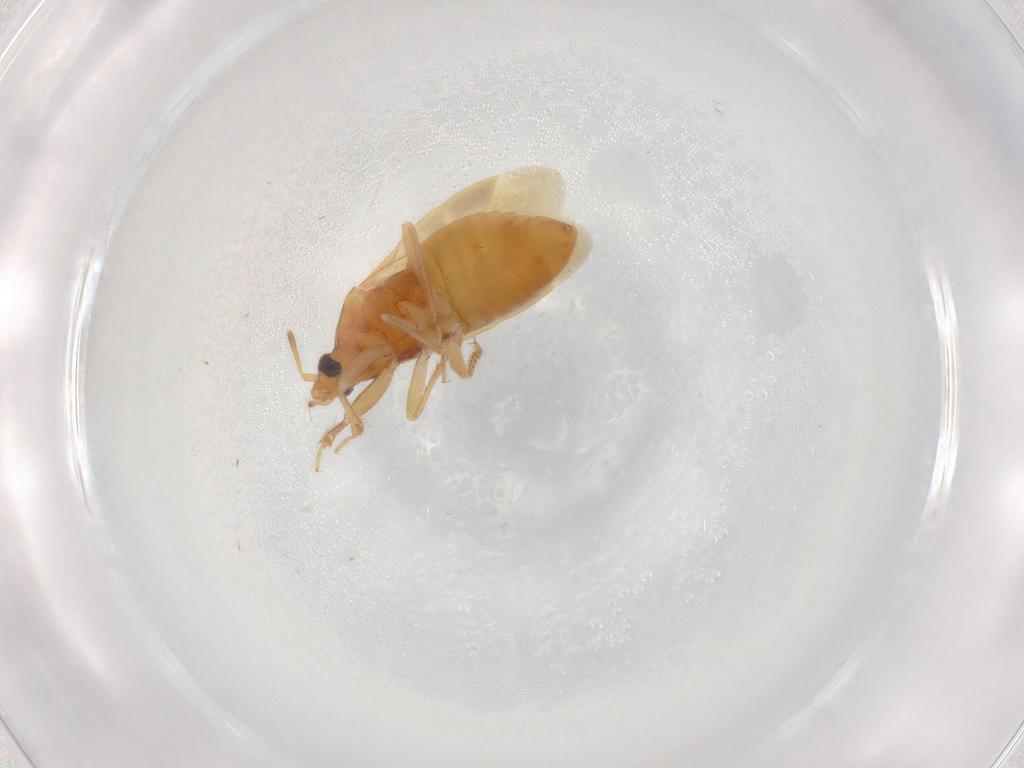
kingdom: Animalia
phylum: Arthropoda
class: Insecta
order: Hemiptera
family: Lasiochilidae
